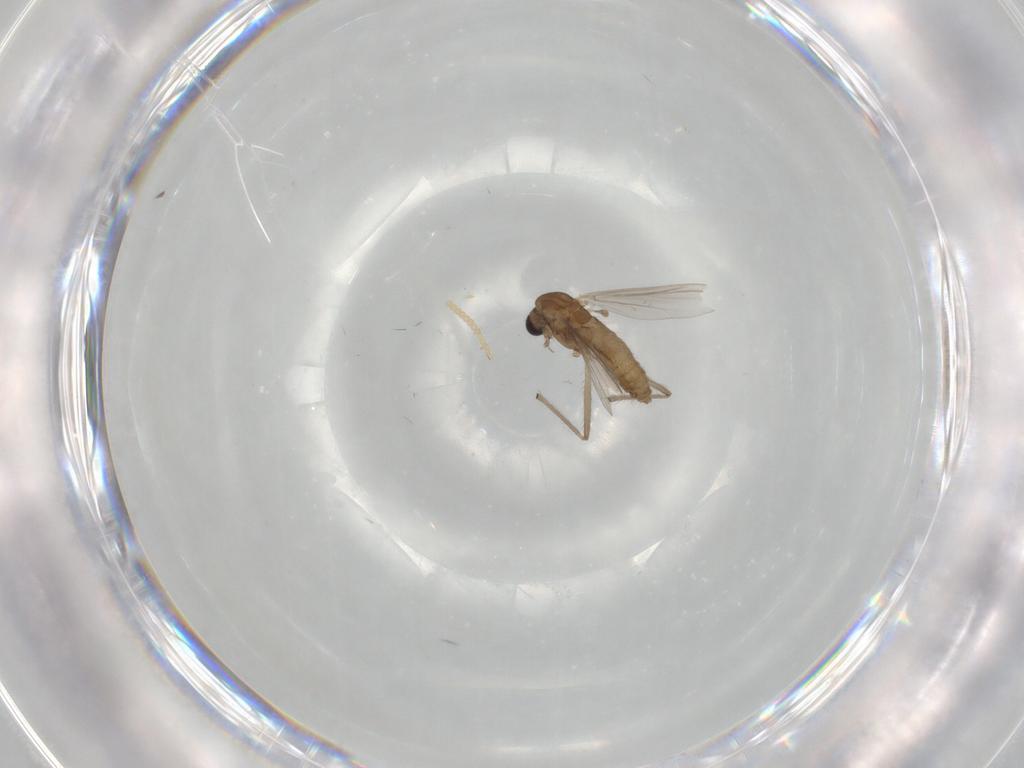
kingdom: Animalia
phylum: Arthropoda
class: Insecta
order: Diptera
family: Chironomidae
